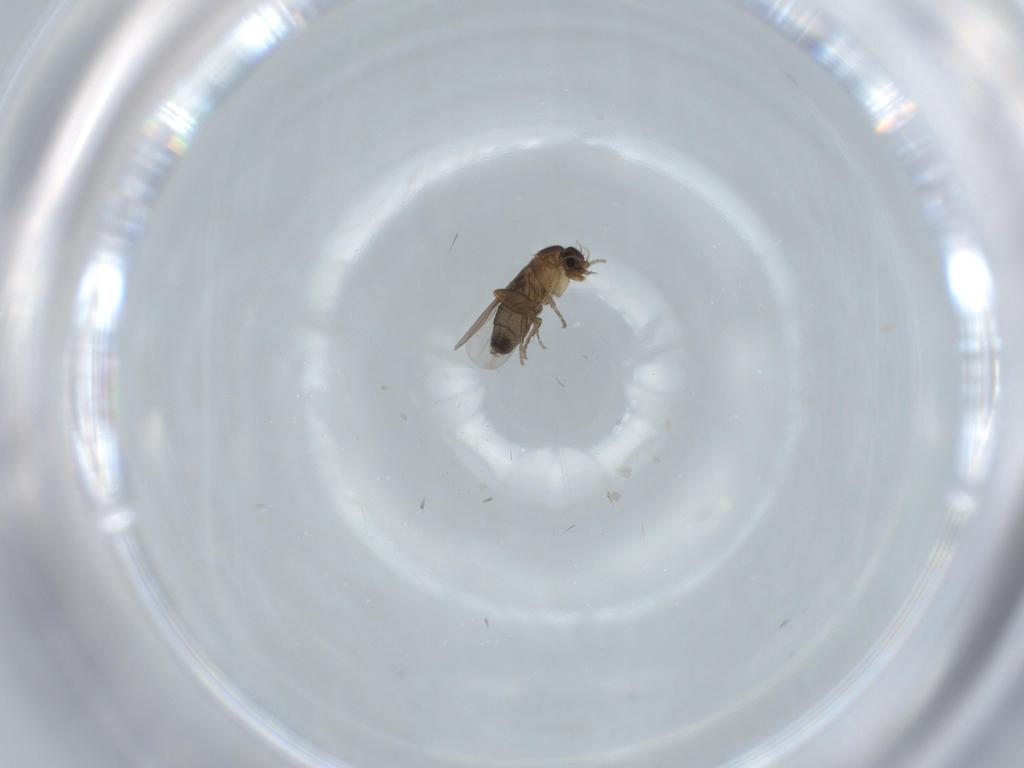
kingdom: Animalia
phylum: Arthropoda
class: Insecta
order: Diptera
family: Phoridae
